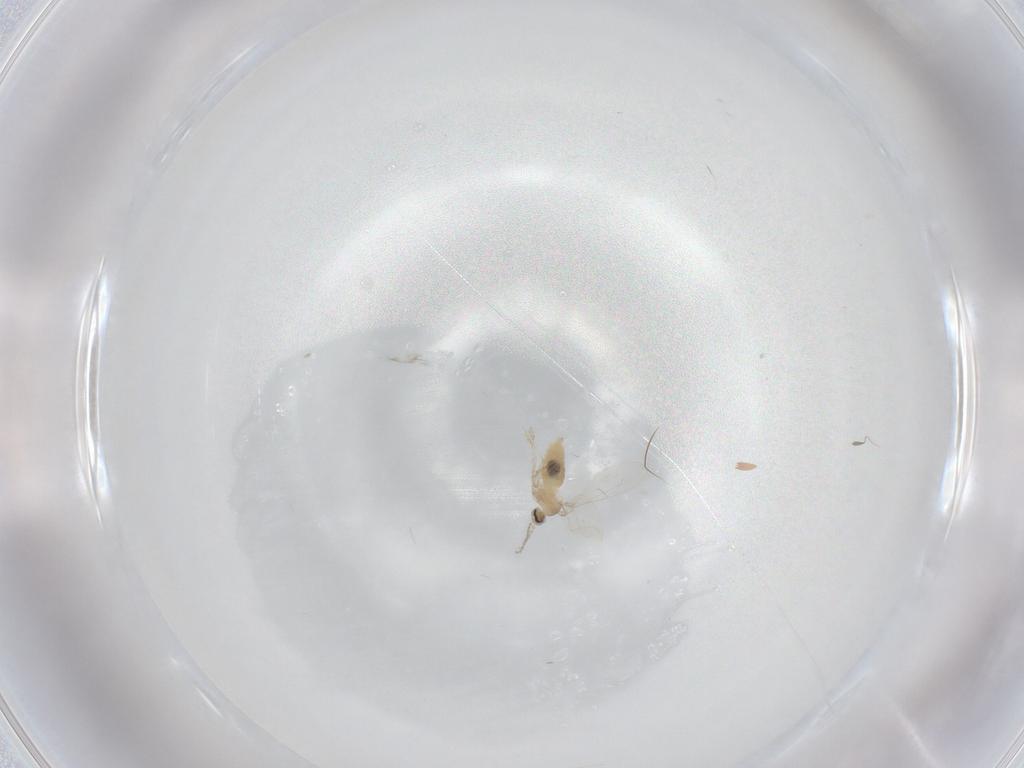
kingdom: Animalia
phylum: Arthropoda
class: Insecta
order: Diptera
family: Cecidomyiidae
